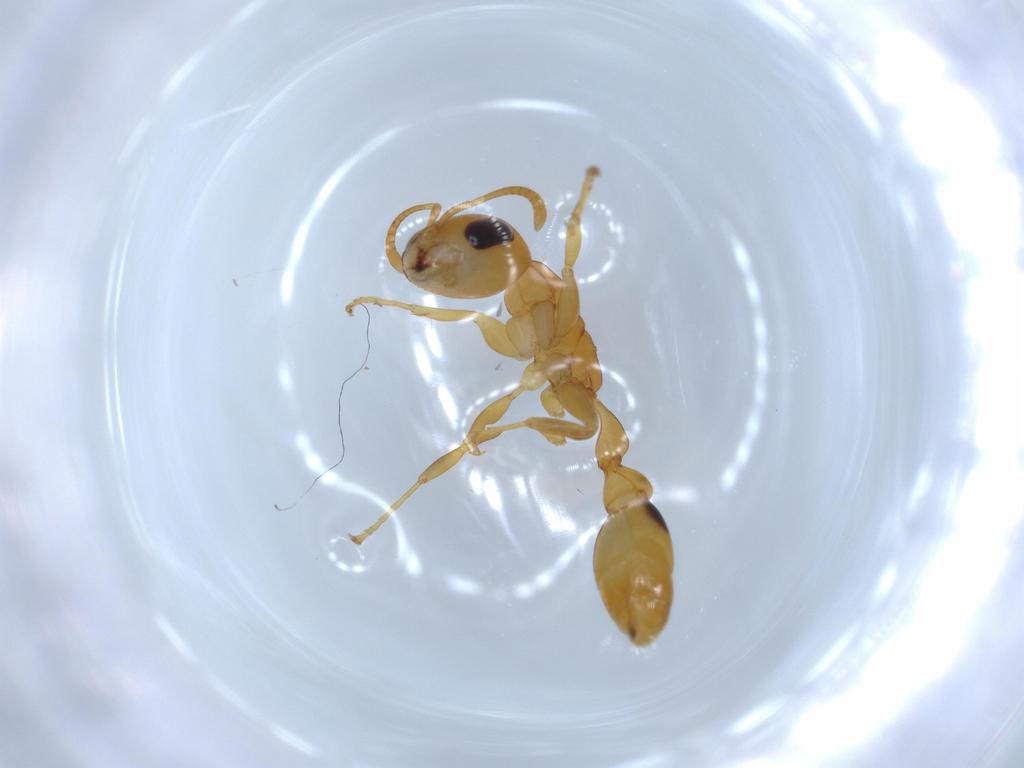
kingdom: Animalia
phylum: Arthropoda
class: Insecta
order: Hymenoptera
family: Formicidae
